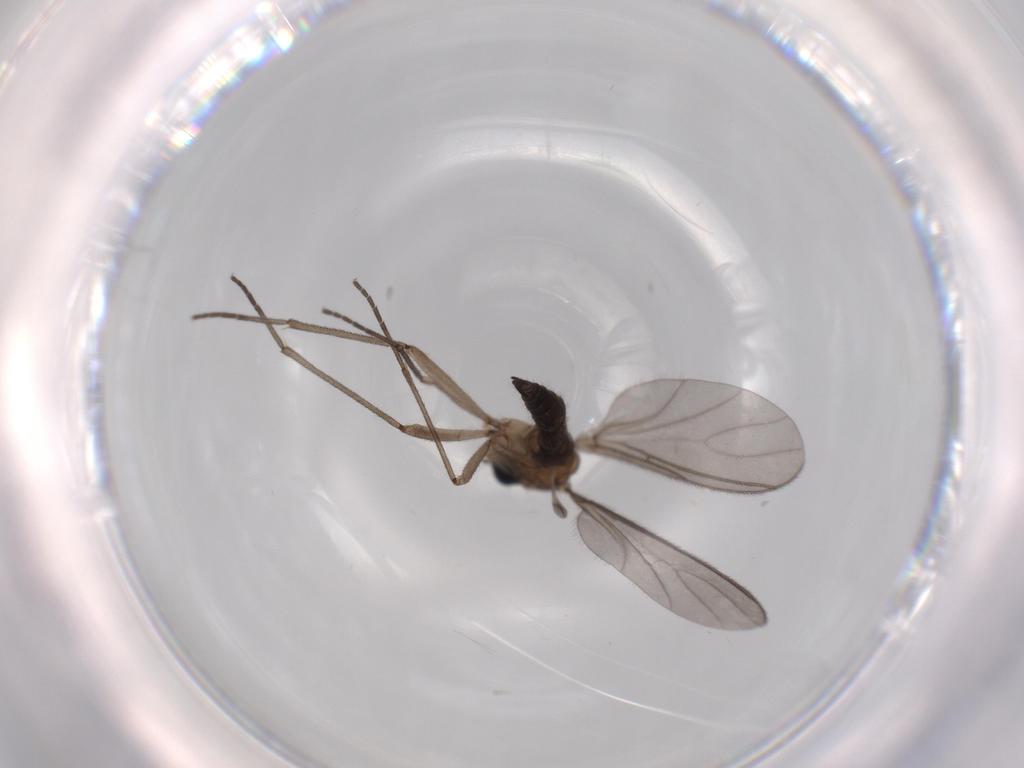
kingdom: Animalia
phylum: Arthropoda
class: Insecta
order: Diptera
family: Sciaridae
